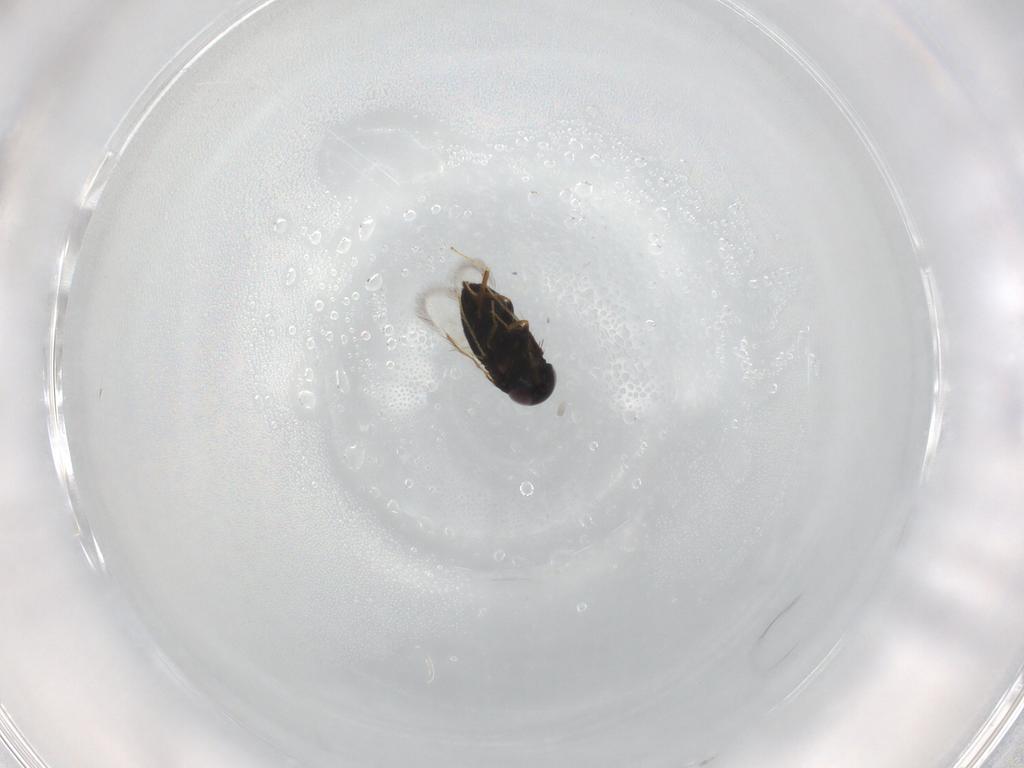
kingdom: Animalia
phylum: Arthropoda
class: Insecta
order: Hymenoptera
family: Signiphoridae
